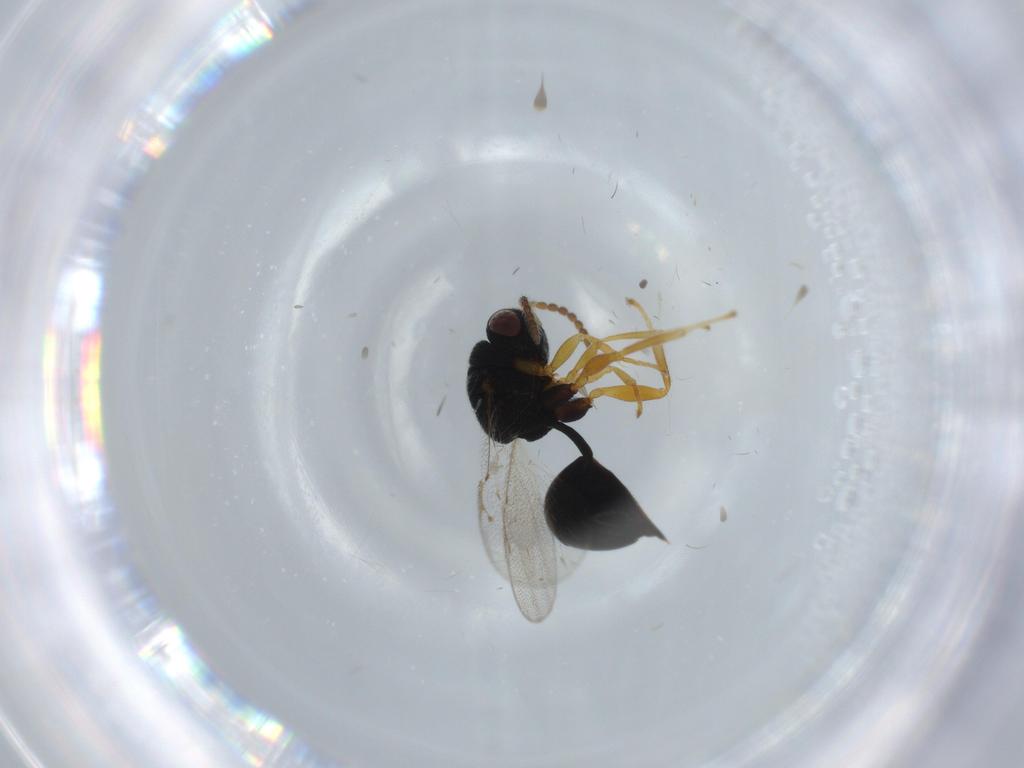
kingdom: Animalia
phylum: Arthropoda
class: Insecta
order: Hymenoptera
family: Eurytomidae
